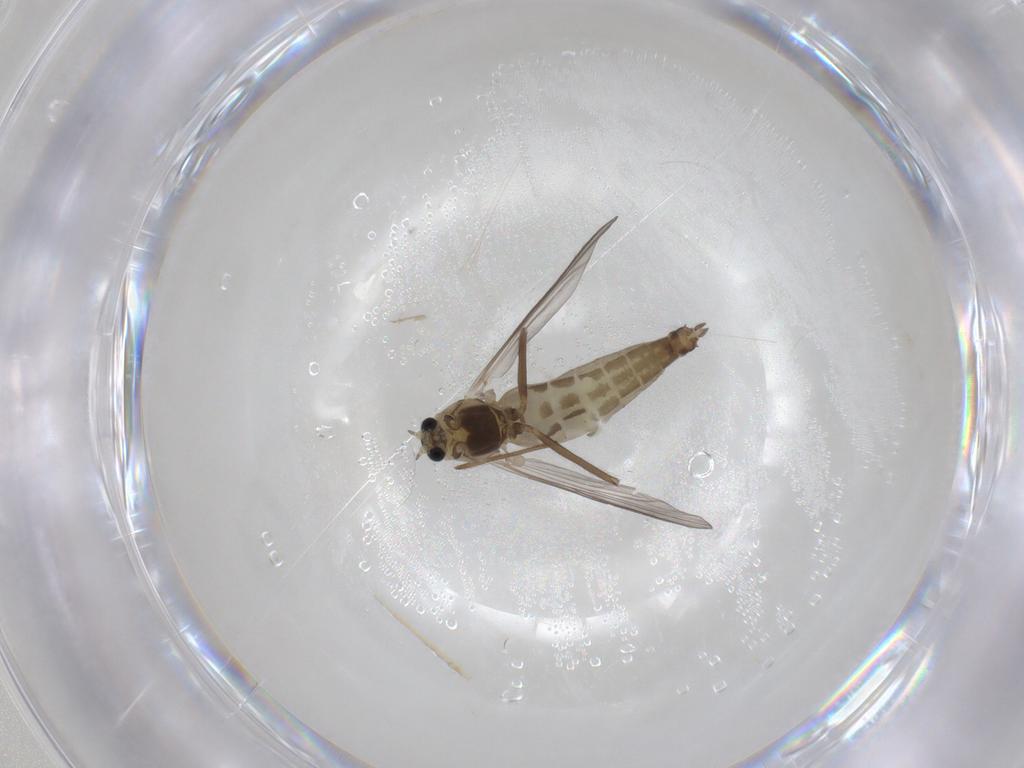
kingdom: Animalia
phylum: Arthropoda
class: Insecta
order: Diptera
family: Chironomidae
